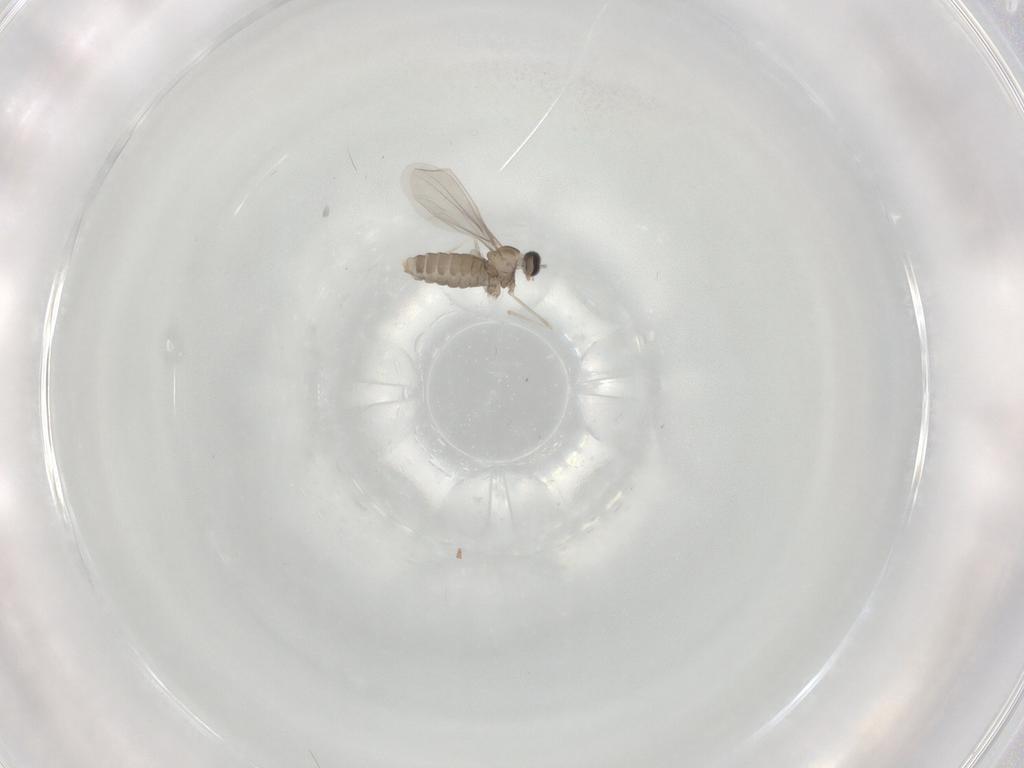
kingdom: Animalia
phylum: Arthropoda
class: Insecta
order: Diptera
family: Cecidomyiidae
